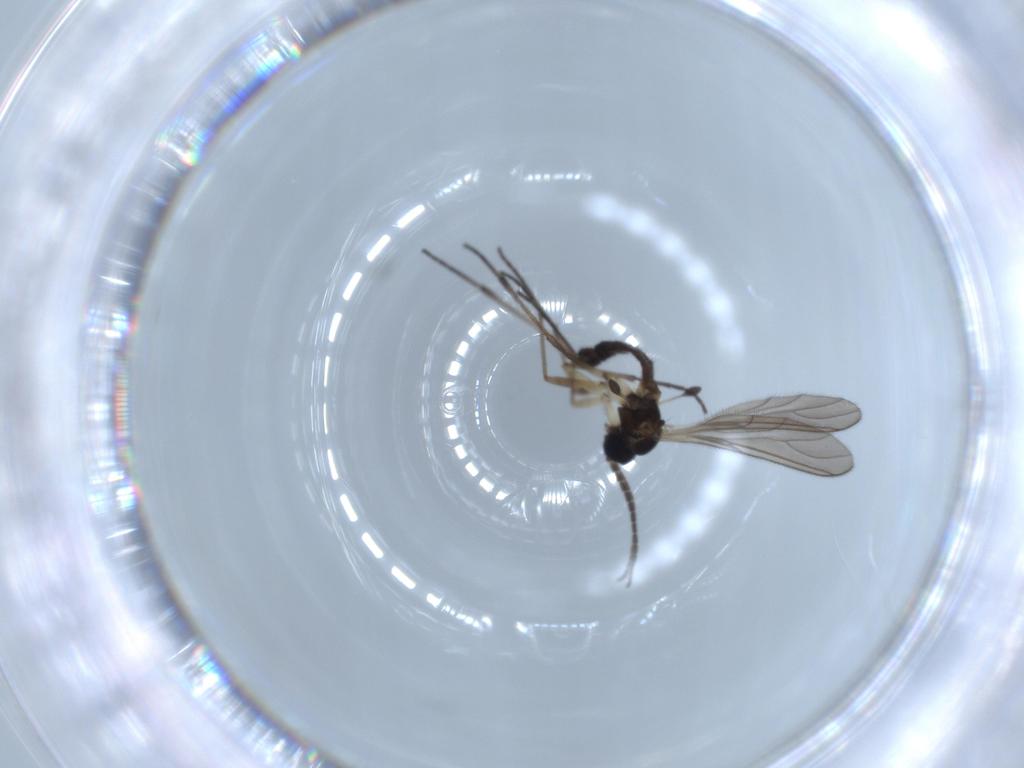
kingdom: Animalia
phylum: Arthropoda
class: Insecta
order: Diptera
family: Sciaridae
